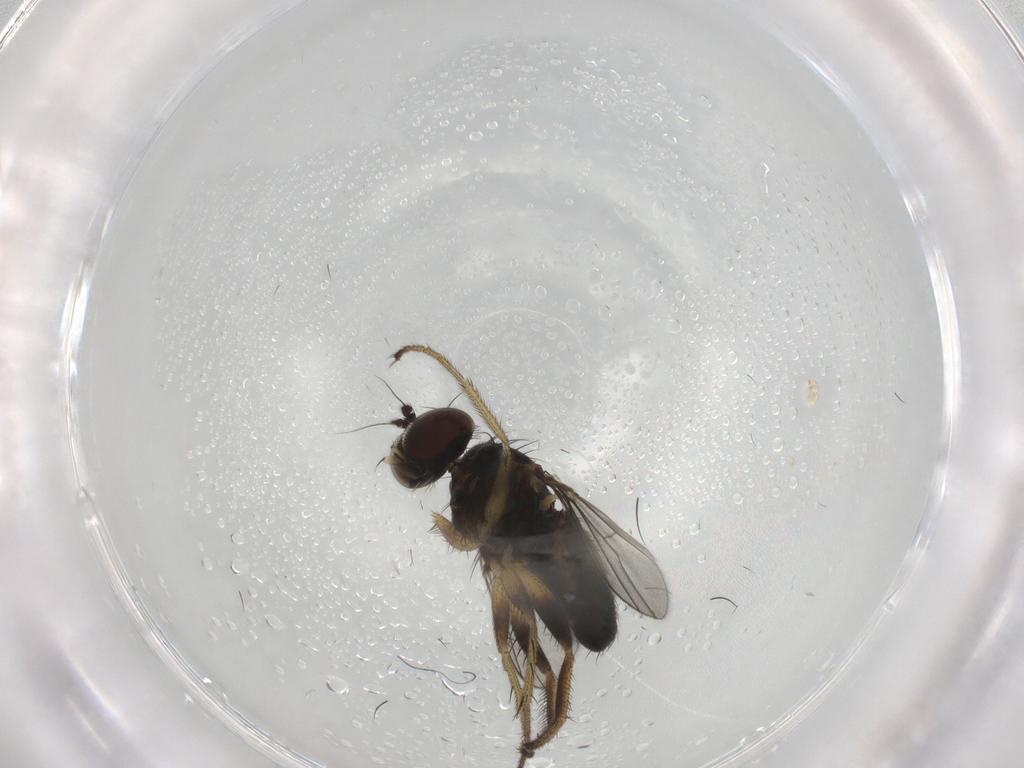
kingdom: Animalia
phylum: Arthropoda
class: Insecta
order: Diptera
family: Dolichopodidae
